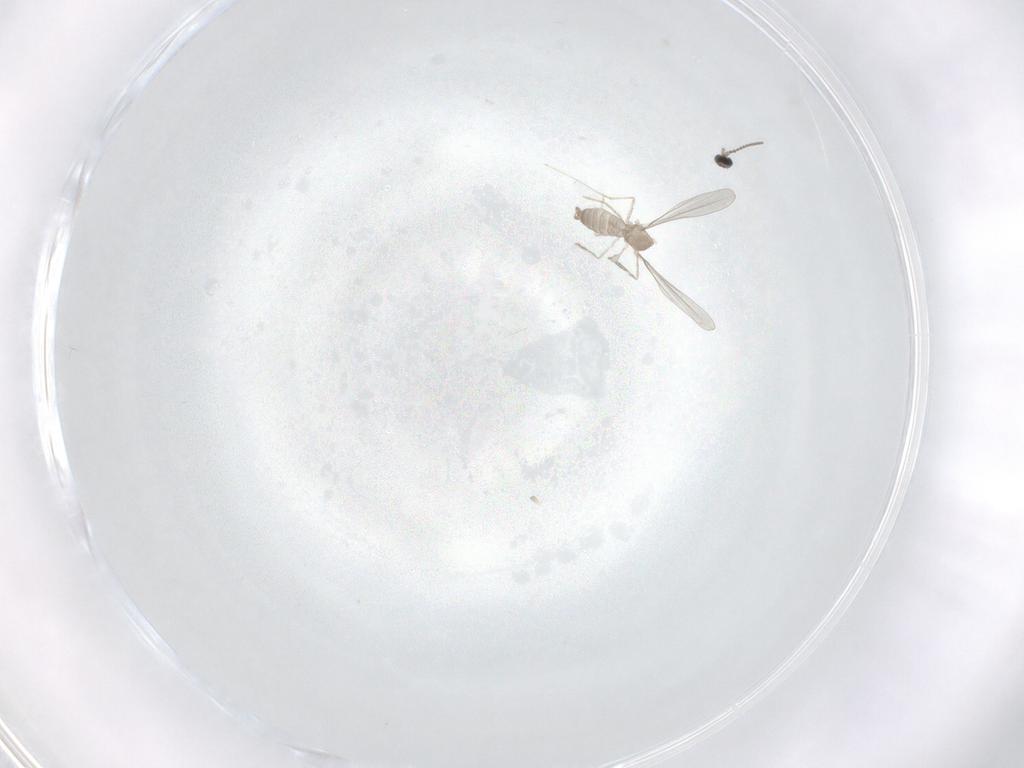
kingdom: Animalia
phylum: Arthropoda
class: Insecta
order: Diptera
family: Cecidomyiidae
